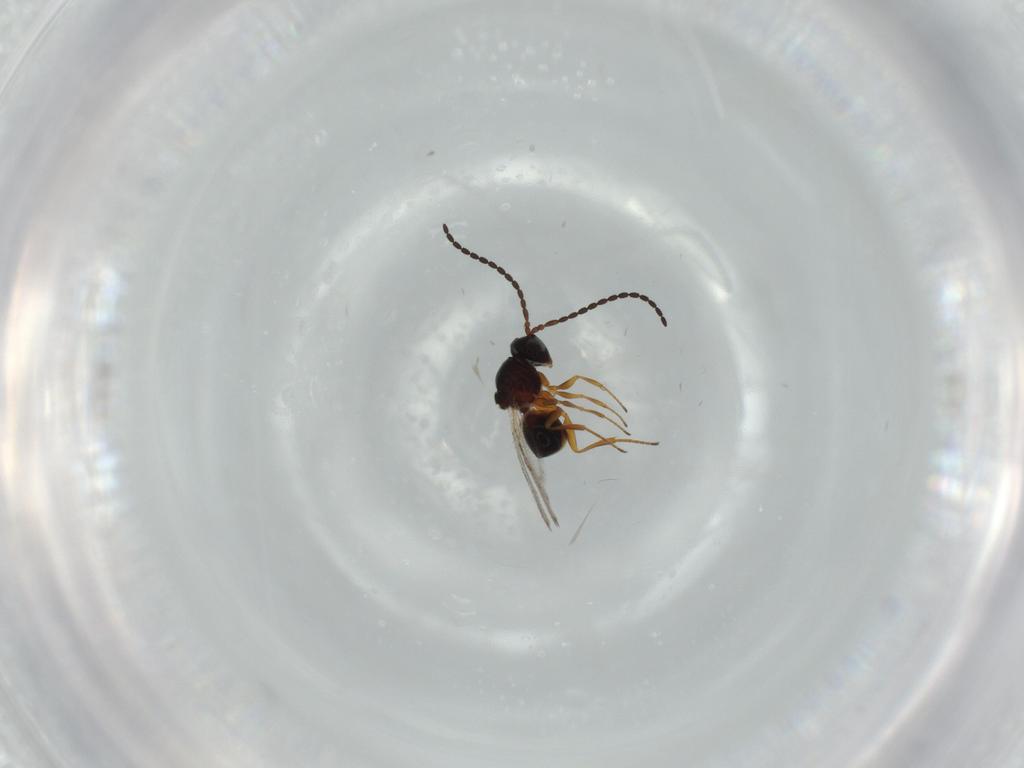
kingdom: Animalia
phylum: Arthropoda
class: Insecta
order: Hymenoptera
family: Figitidae
